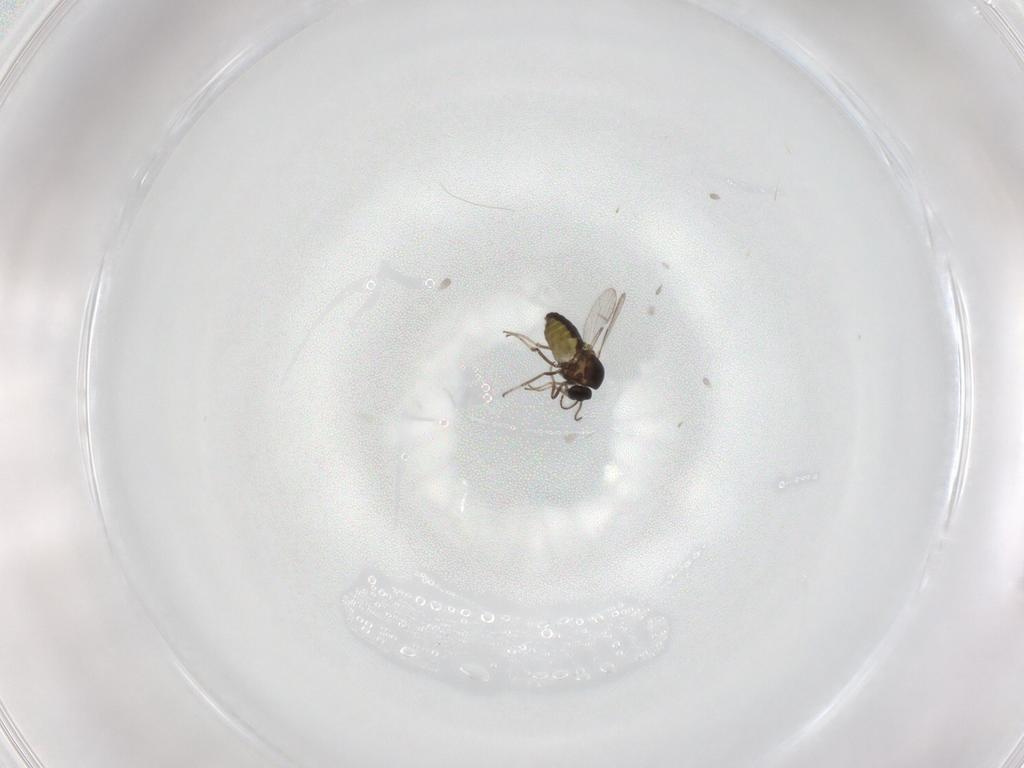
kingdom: Animalia
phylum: Arthropoda
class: Insecta
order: Diptera
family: Ceratopogonidae
